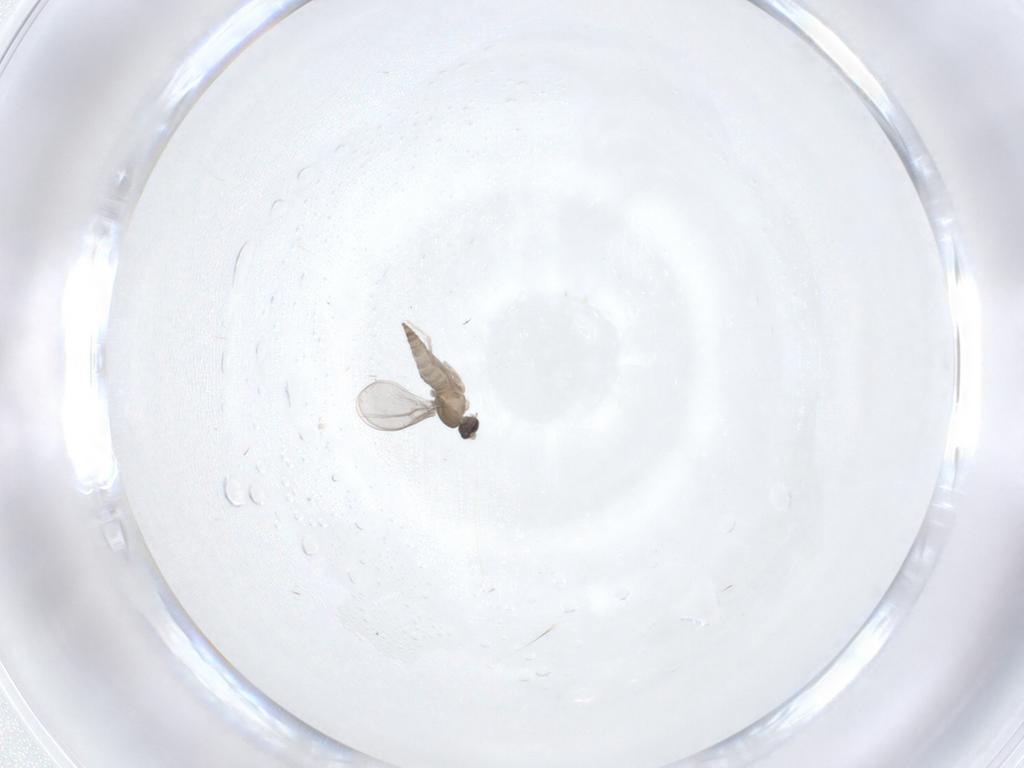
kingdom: Animalia
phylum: Arthropoda
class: Insecta
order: Diptera
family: Cecidomyiidae
